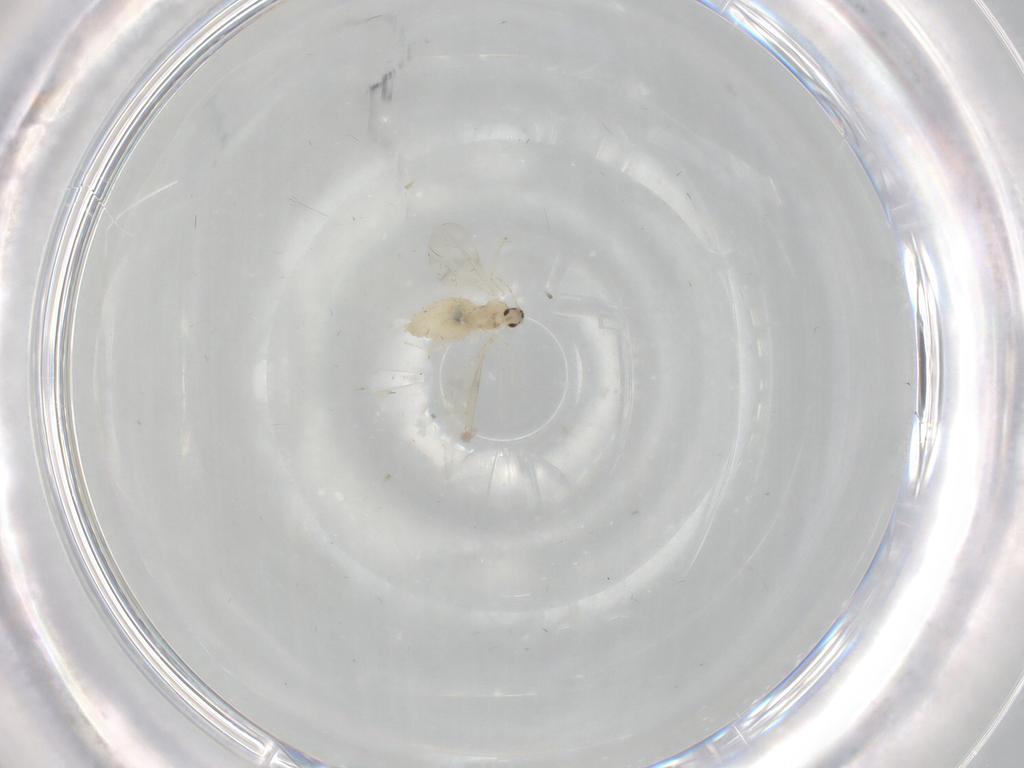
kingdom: Animalia
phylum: Arthropoda
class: Insecta
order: Diptera
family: Cecidomyiidae
